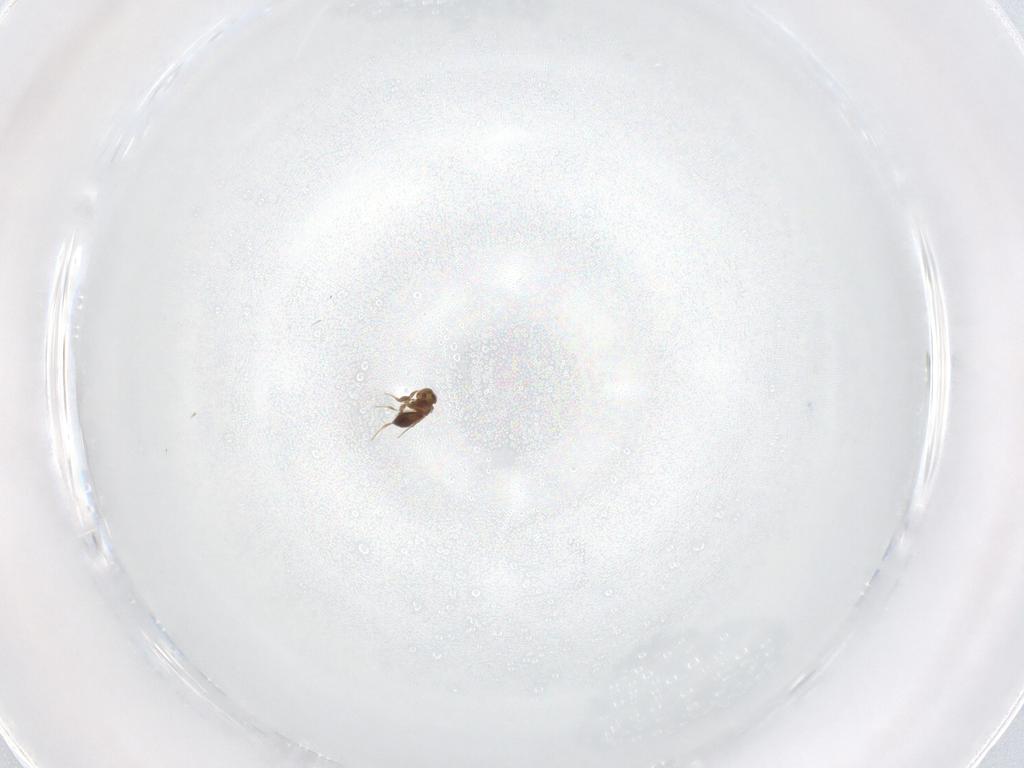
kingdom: Animalia
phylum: Arthropoda
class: Insecta
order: Hymenoptera
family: Platygastridae
